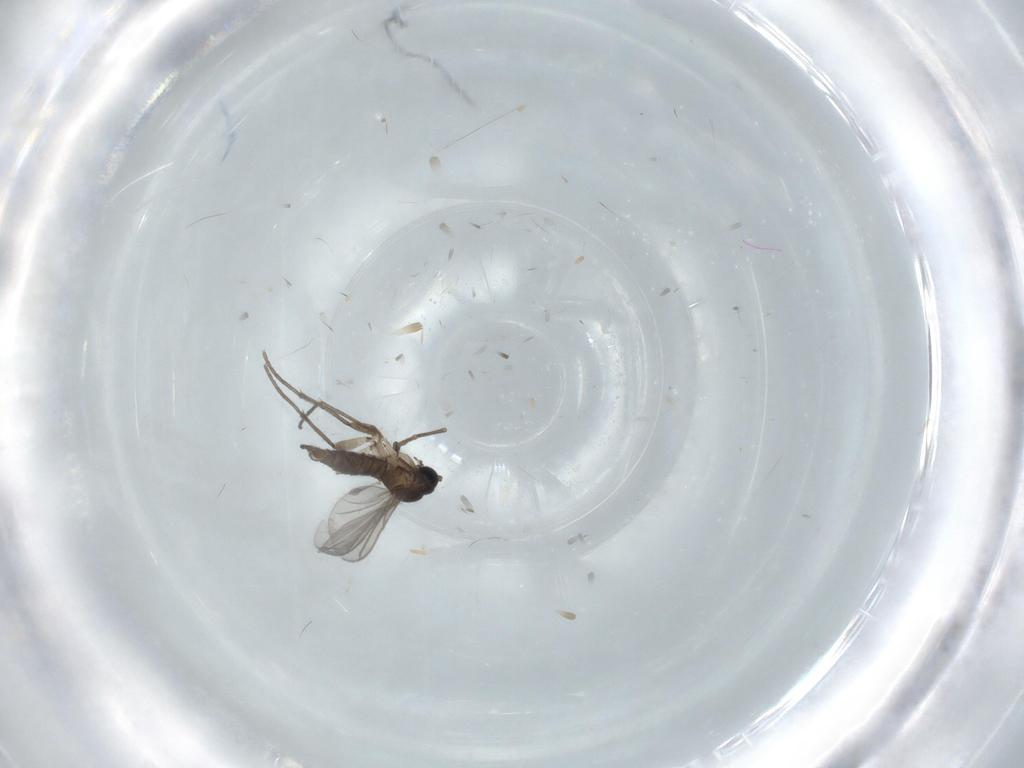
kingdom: Animalia
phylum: Arthropoda
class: Insecta
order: Diptera
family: Sciaridae
